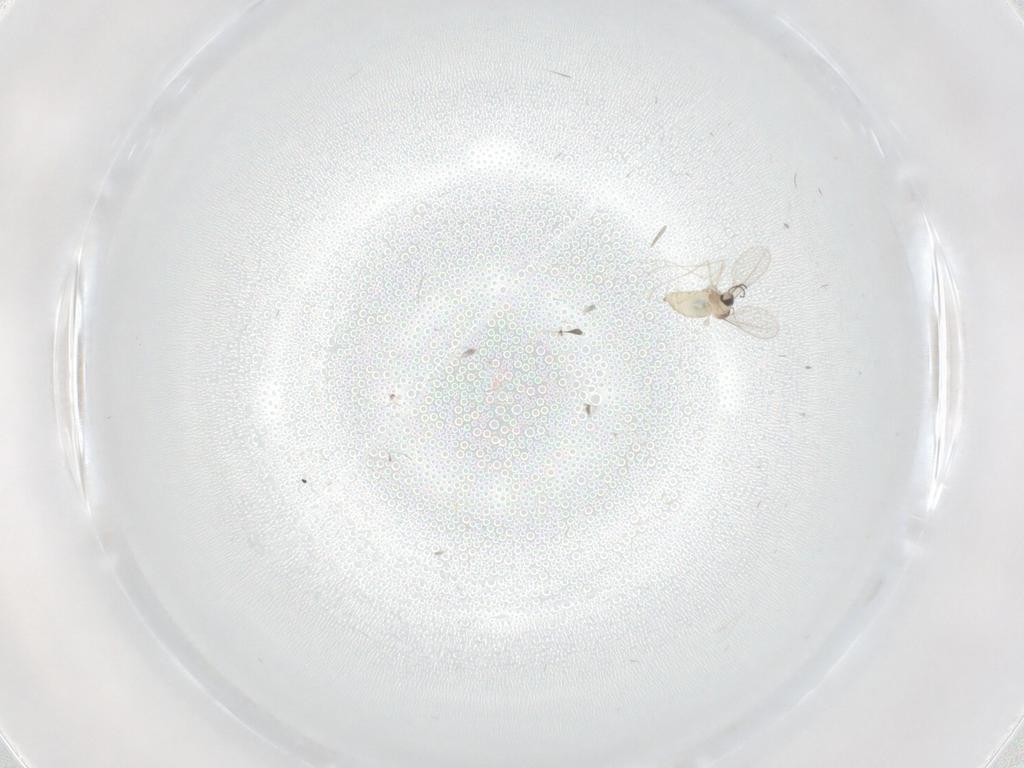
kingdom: Animalia
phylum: Arthropoda
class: Insecta
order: Diptera
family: Cecidomyiidae
